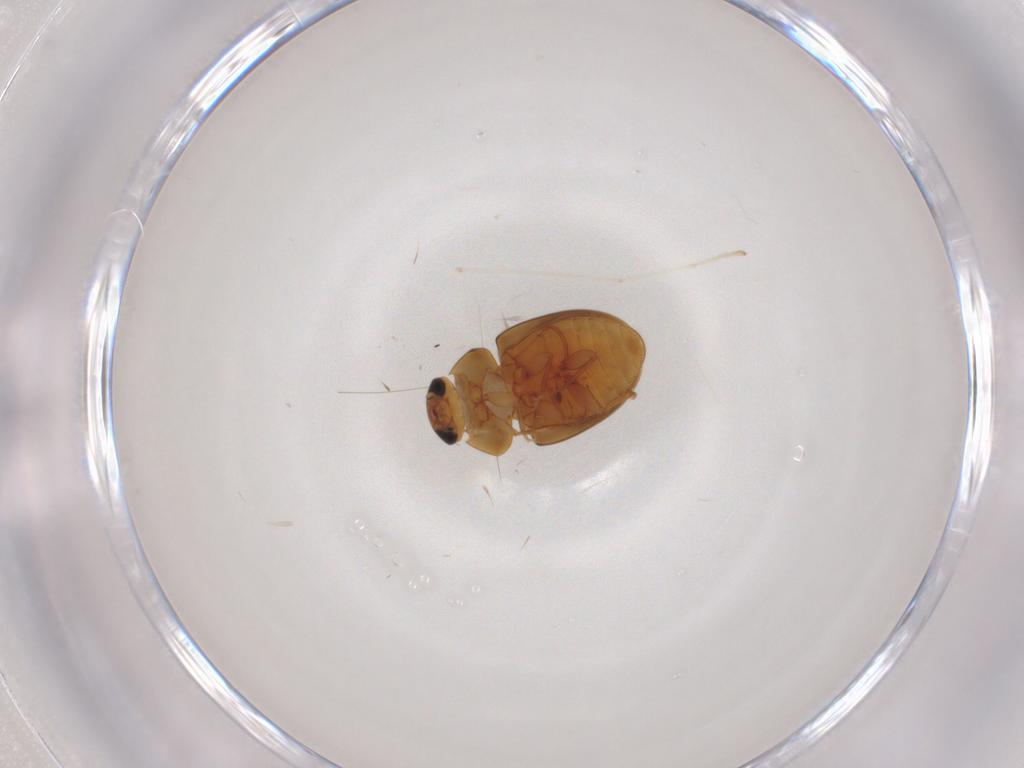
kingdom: Animalia
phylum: Arthropoda
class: Insecta
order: Coleoptera
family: Phalacridae
